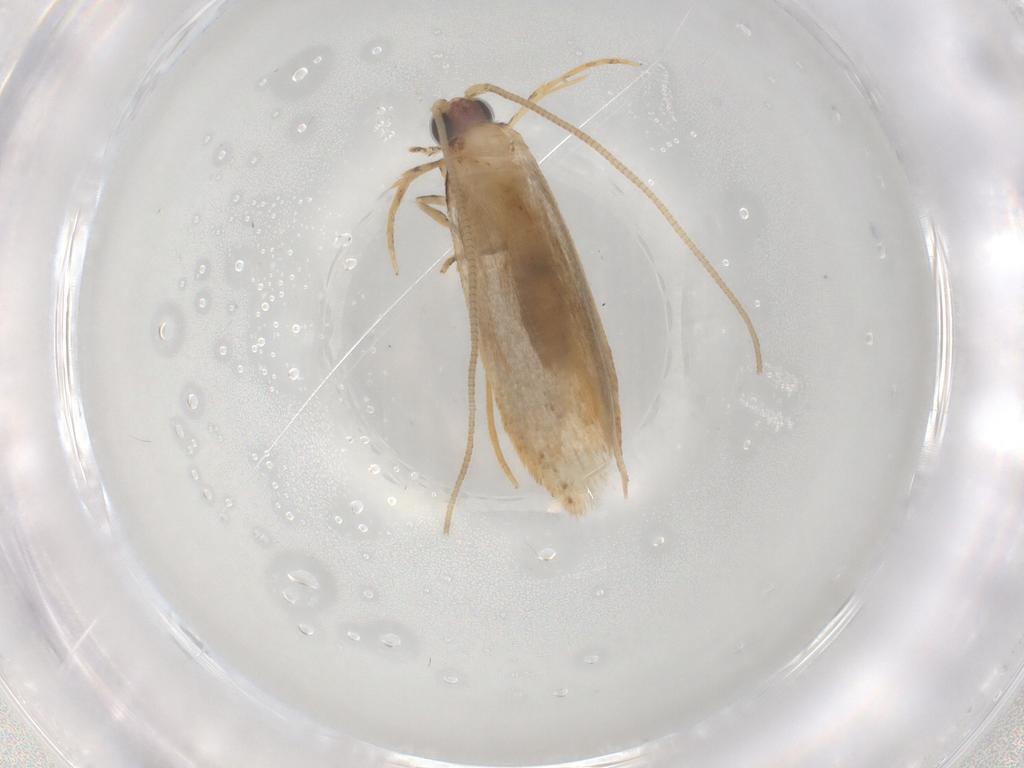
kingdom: Animalia
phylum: Arthropoda
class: Insecta
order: Lepidoptera
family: Nepticulidae
